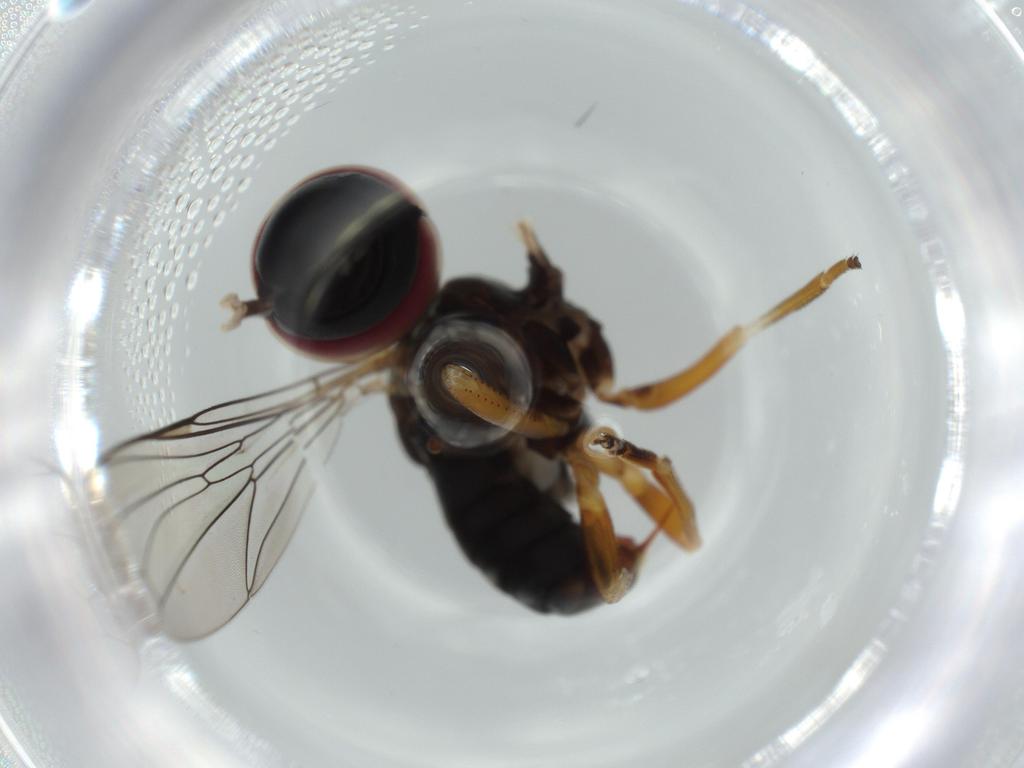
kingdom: Animalia
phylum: Arthropoda
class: Insecta
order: Diptera
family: Pipunculidae
